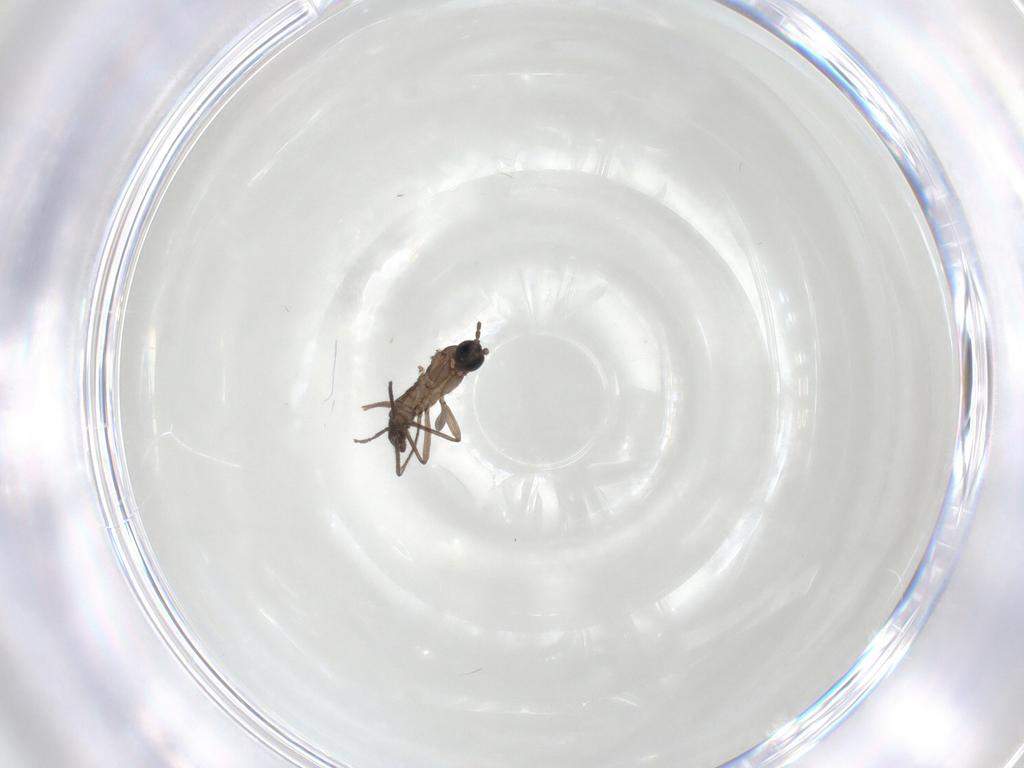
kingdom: Animalia
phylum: Arthropoda
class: Insecta
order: Diptera
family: Sciaridae
